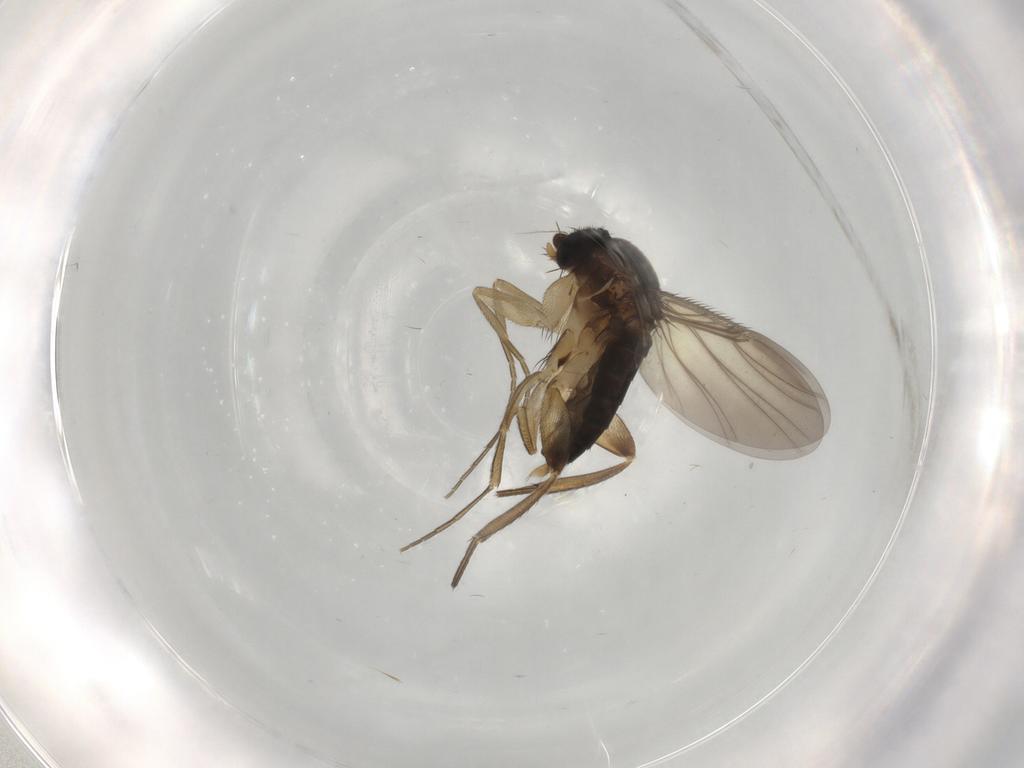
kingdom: Animalia
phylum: Arthropoda
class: Insecta
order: Diptera
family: Phoridae
